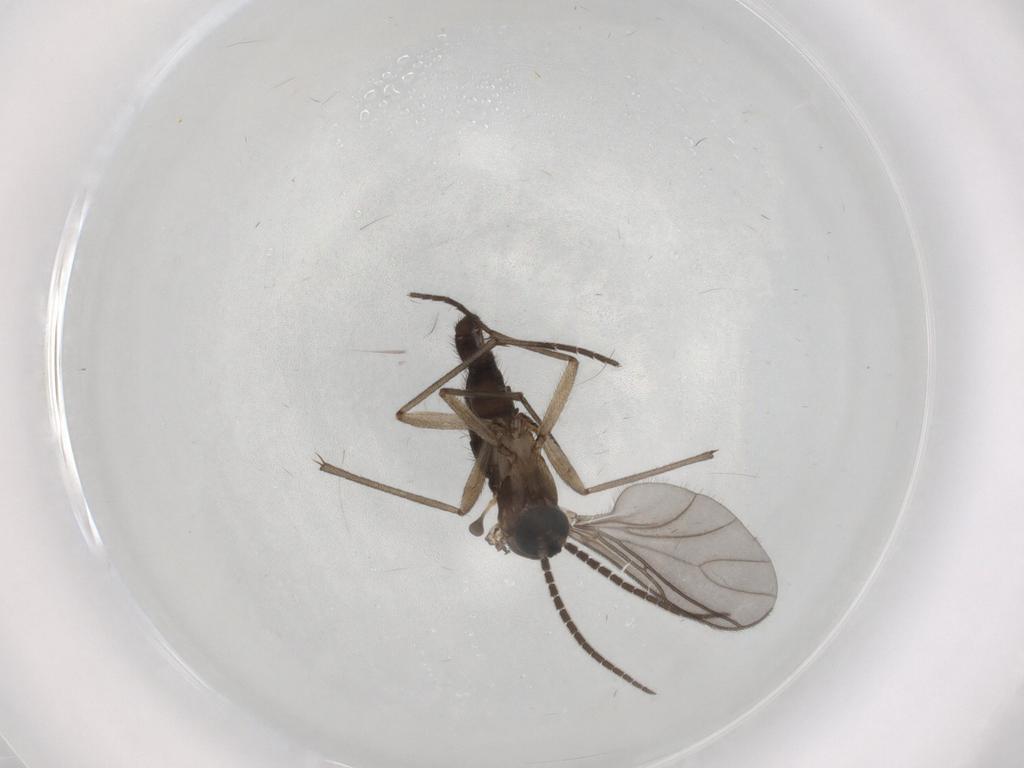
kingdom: Animalia
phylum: Arthropoda
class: Insecta
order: Diptera
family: Sciaridae
